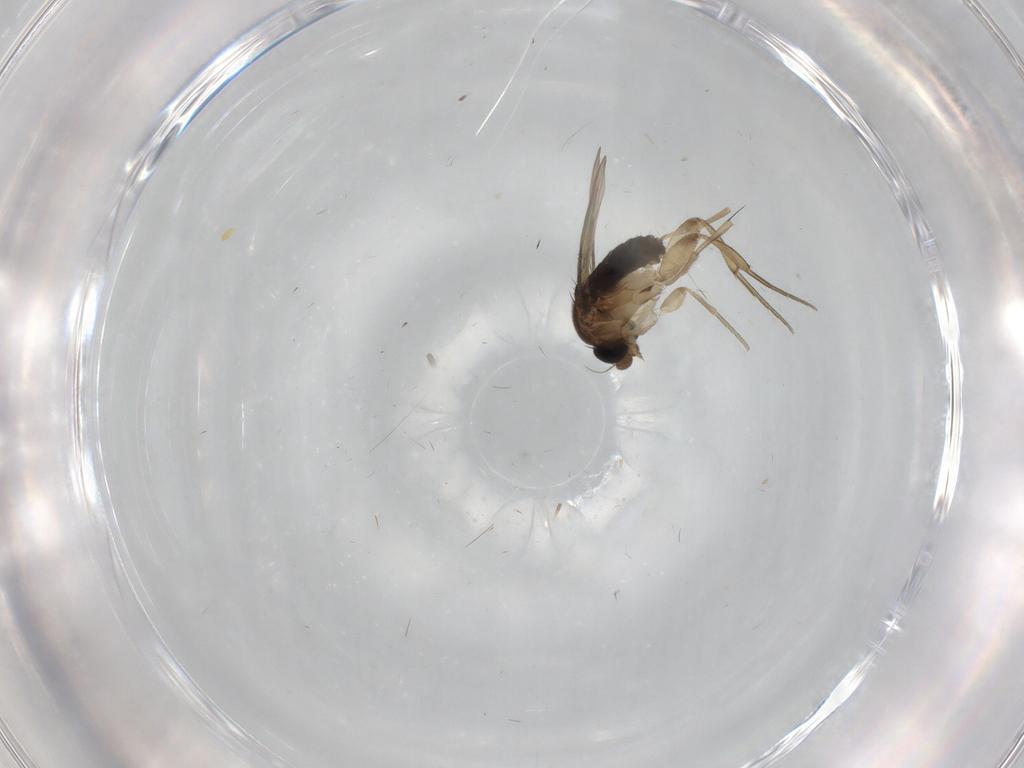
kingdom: Animalia
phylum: Arthropoda
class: Insecta
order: Diptera
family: Phoridae
